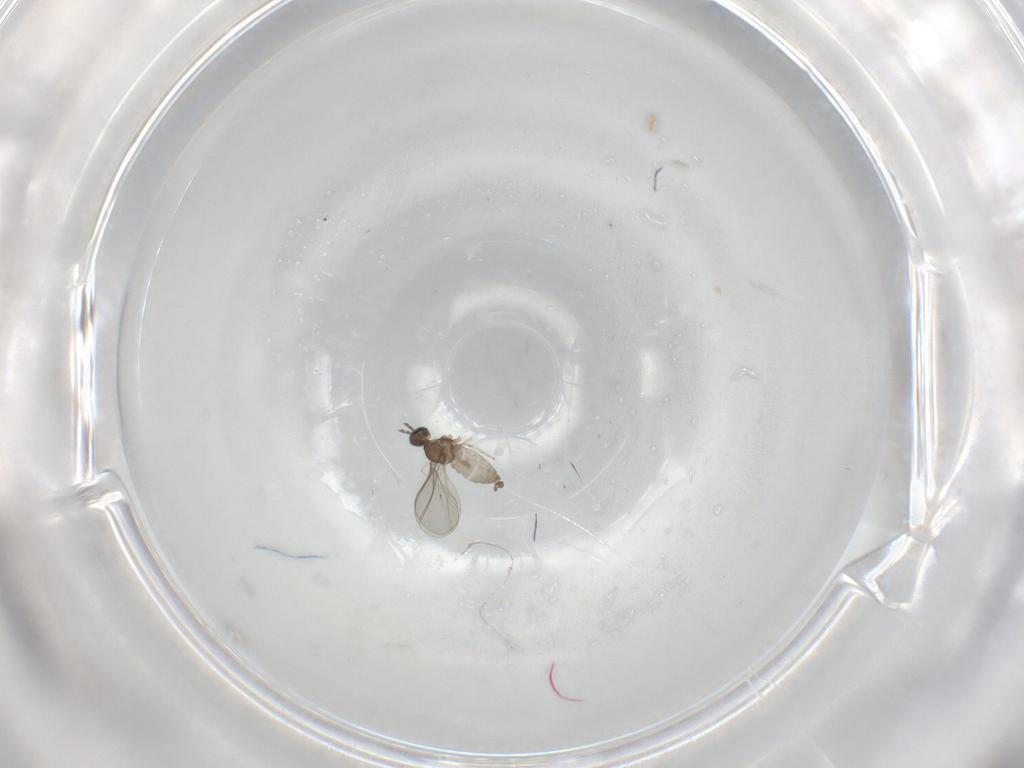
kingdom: Animalia
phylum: Arthropoda
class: Insecta
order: Diptera
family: Cecidomyiidae
